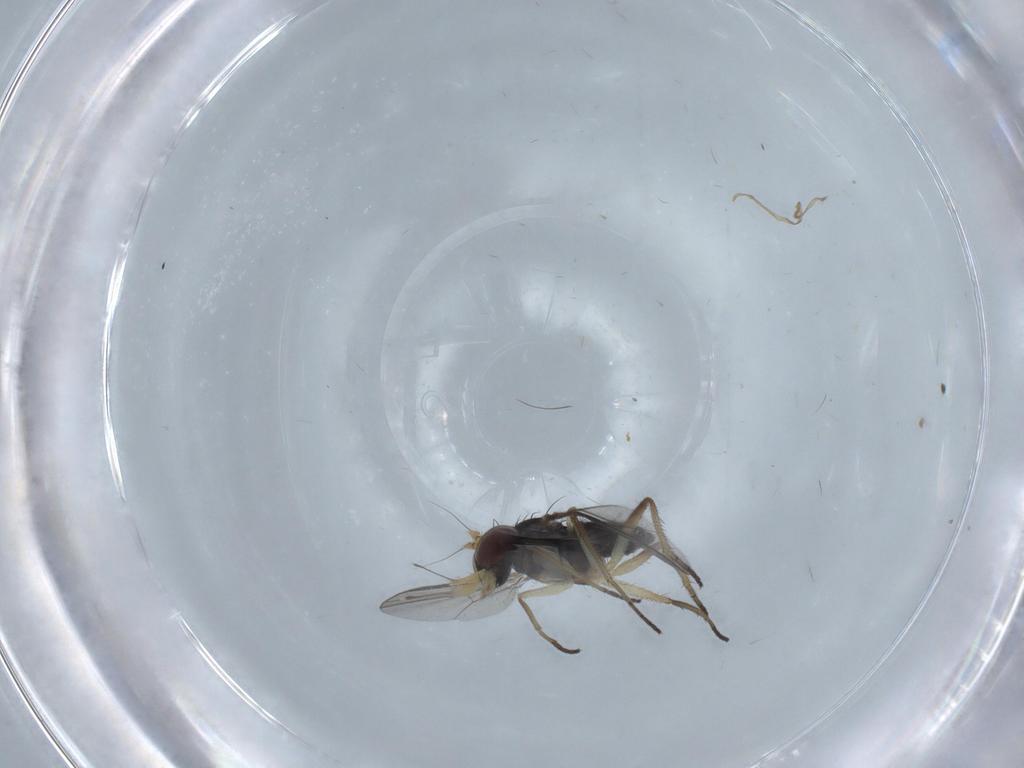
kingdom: Animalia
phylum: Arthropoda
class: Insecta
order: Diptera
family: Dolichopodidae
